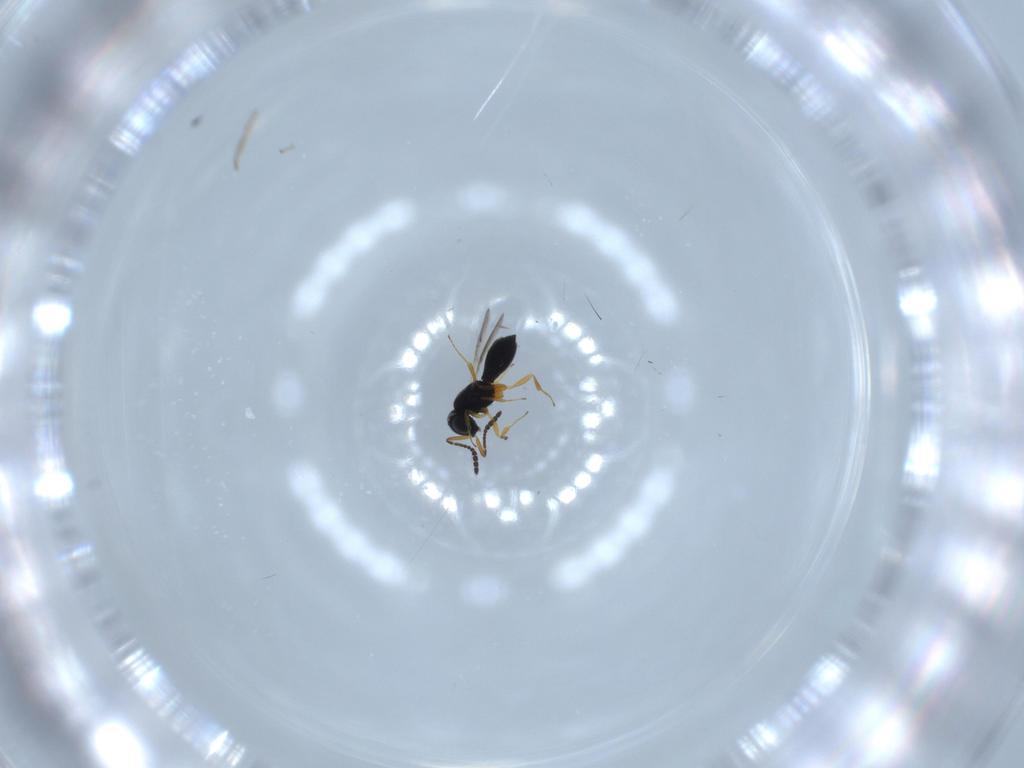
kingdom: Animalia
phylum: Arthropoda
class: Insecta
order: Hymenoptera
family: Scelionidae
